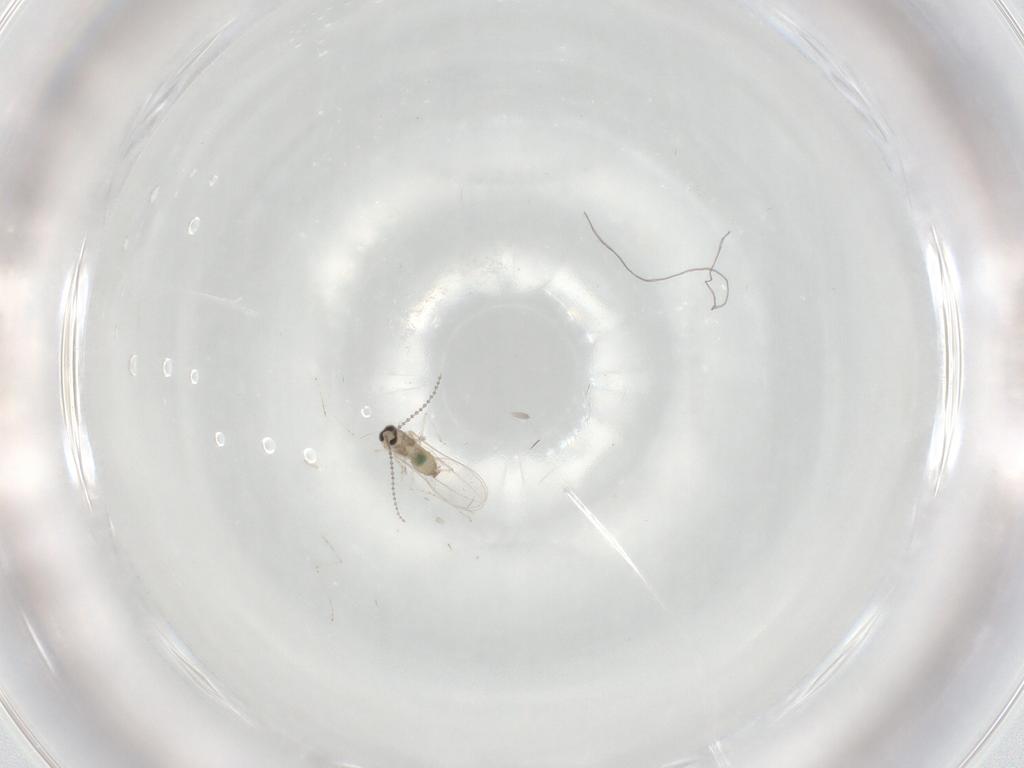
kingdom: Animalia
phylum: Arthropoda
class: Insecta
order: Diptera
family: Cecidomyiidae
